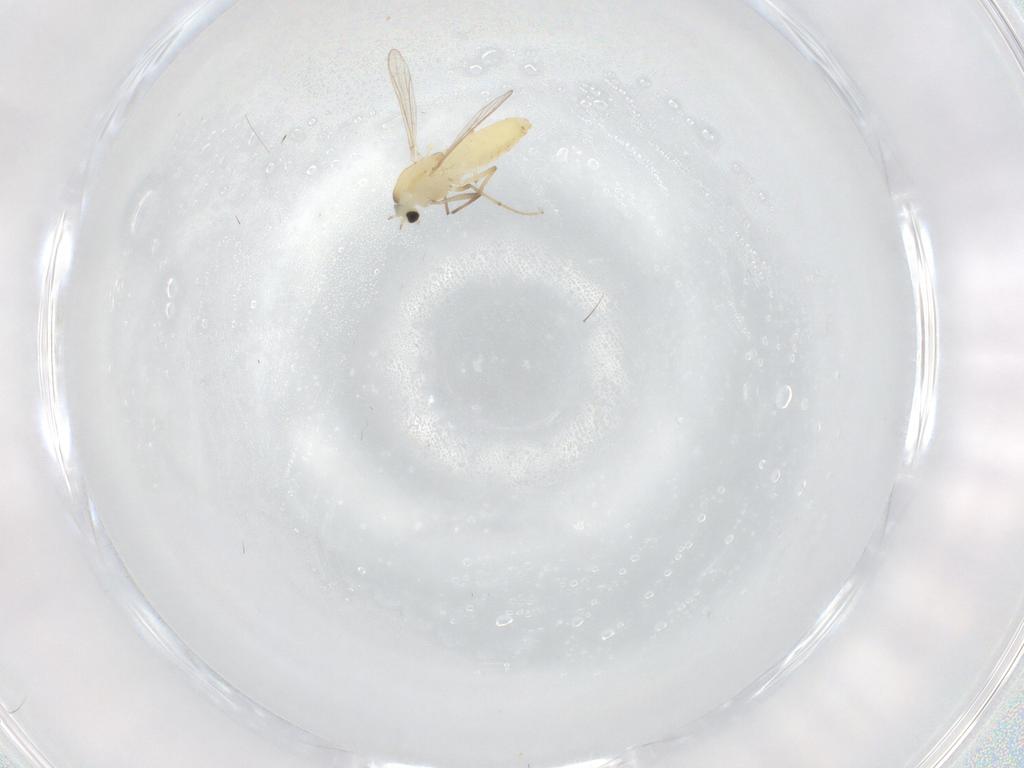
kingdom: Animalia
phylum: Arthropoda
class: Insecta
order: Diptera
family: Chironomidae
